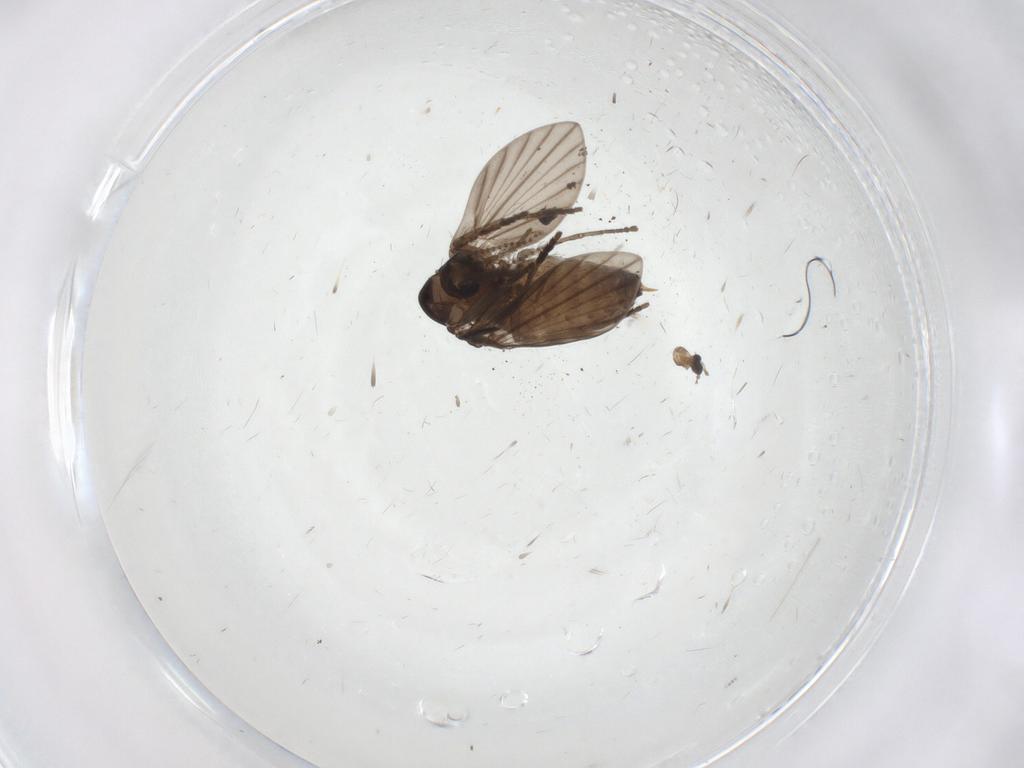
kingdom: Animalia
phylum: Arthropoda
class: Insecta
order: Diptera
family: Psychodidae
